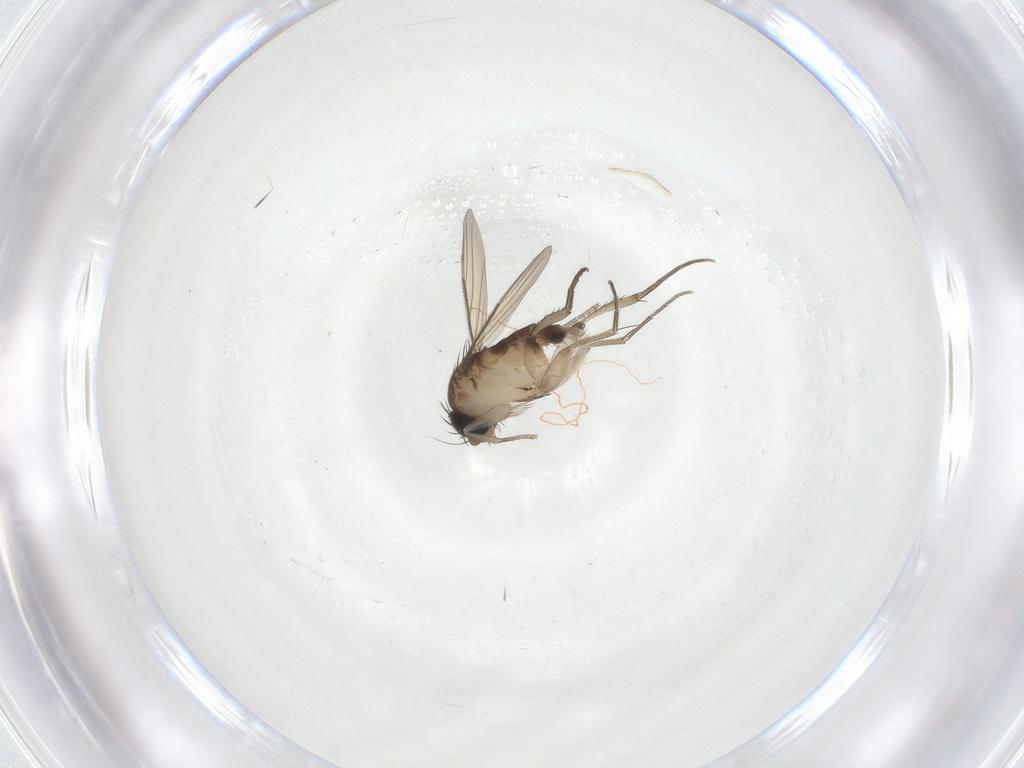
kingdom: Animalia
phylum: Arthropoda
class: Insecta
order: Diptera
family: Phoridae
